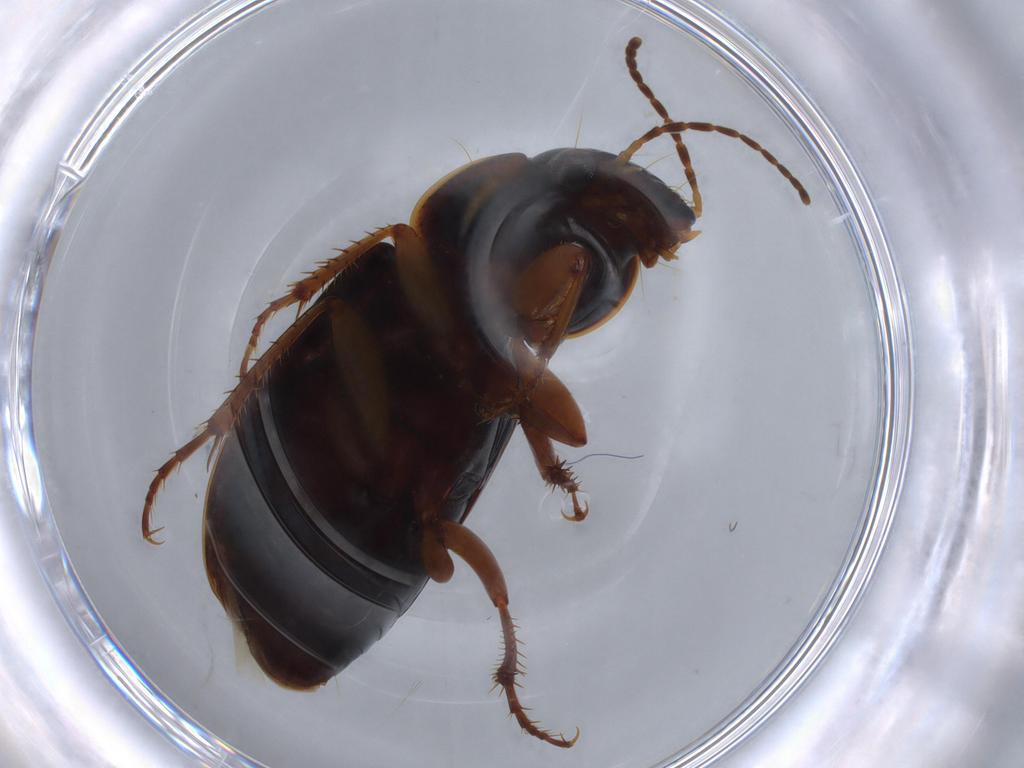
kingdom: Animalia
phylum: Arthropoda
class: Insecta
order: Coleoptera
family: Carabidae
